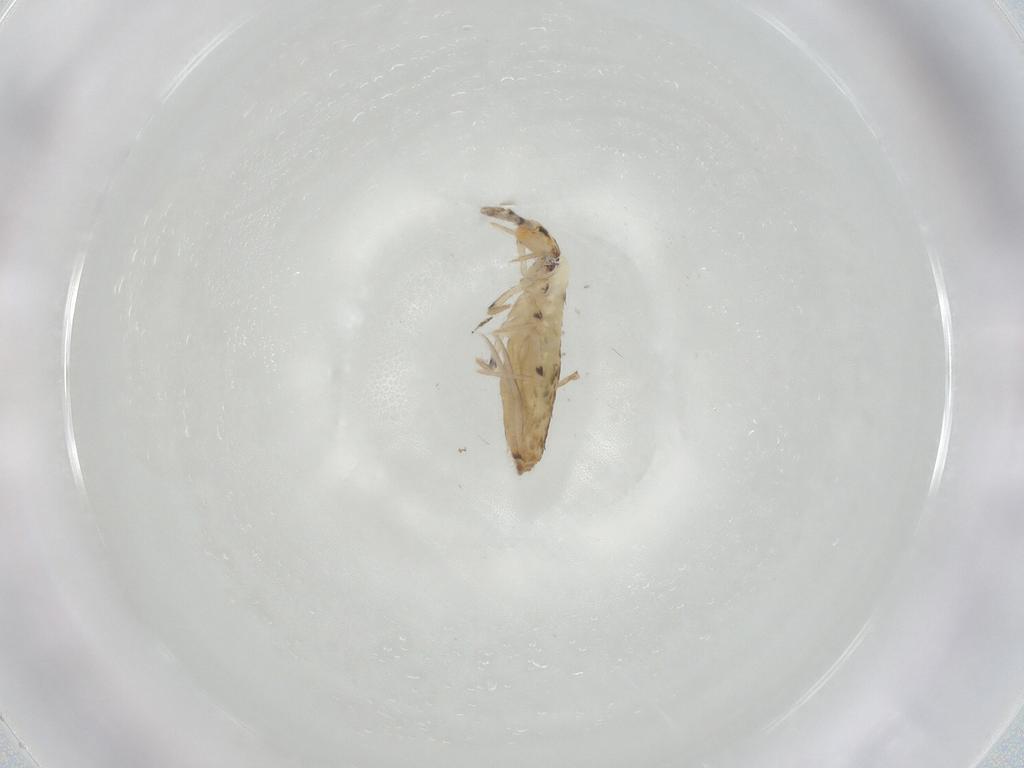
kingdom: Animalia
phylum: Arthropoda
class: Collembola
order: Entomobryomorpha
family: Entomobryidae
